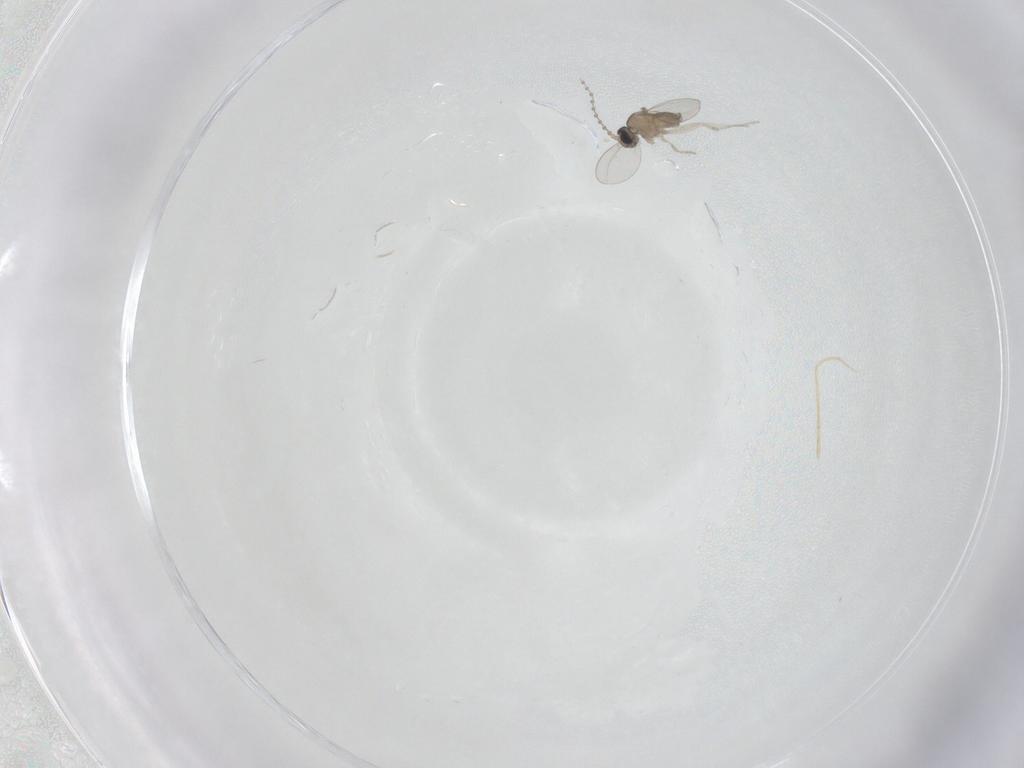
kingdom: Animalia
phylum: Arthropoda
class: Insecta
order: Diptera
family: Cecidomyiidae
